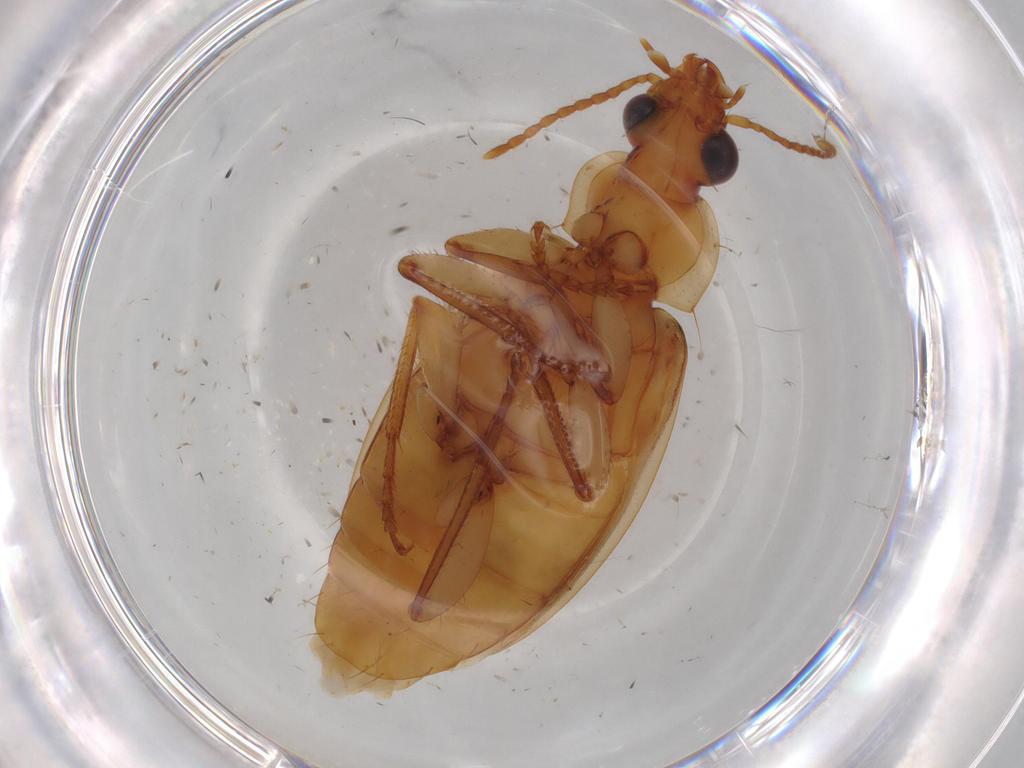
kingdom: Animalia
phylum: Arthropoda
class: Insecta
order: Coleoptera
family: Carabidae
